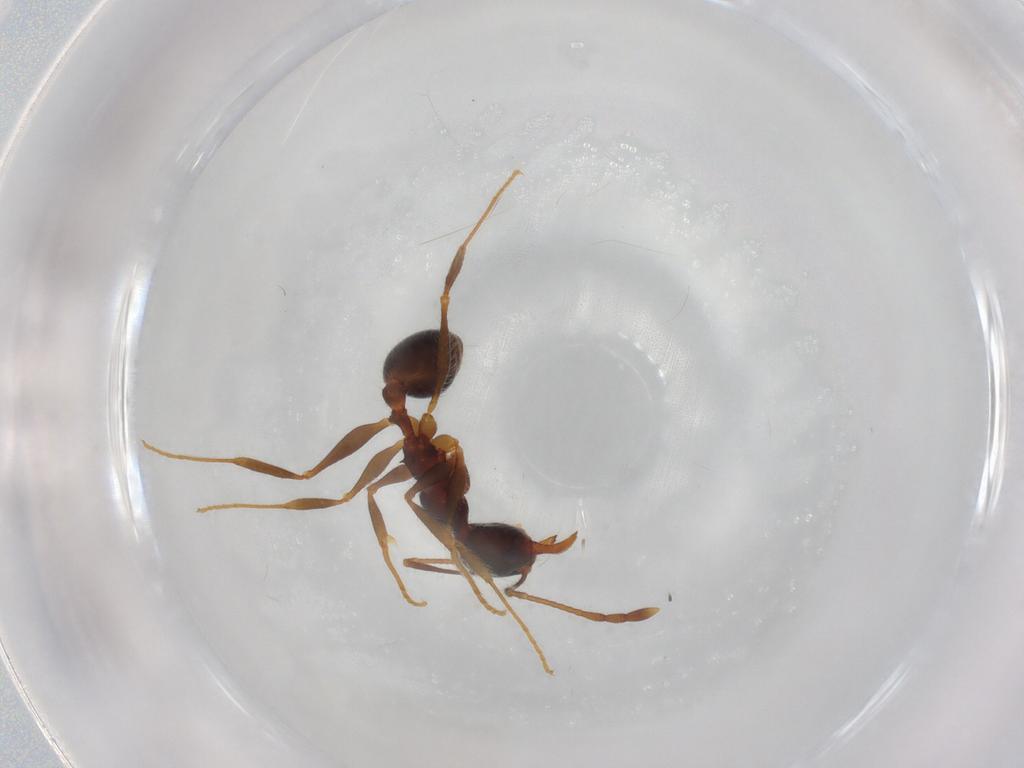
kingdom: Animalia
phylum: Arthropoda
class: Insecta
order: Hymenoptera
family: Formicidae
